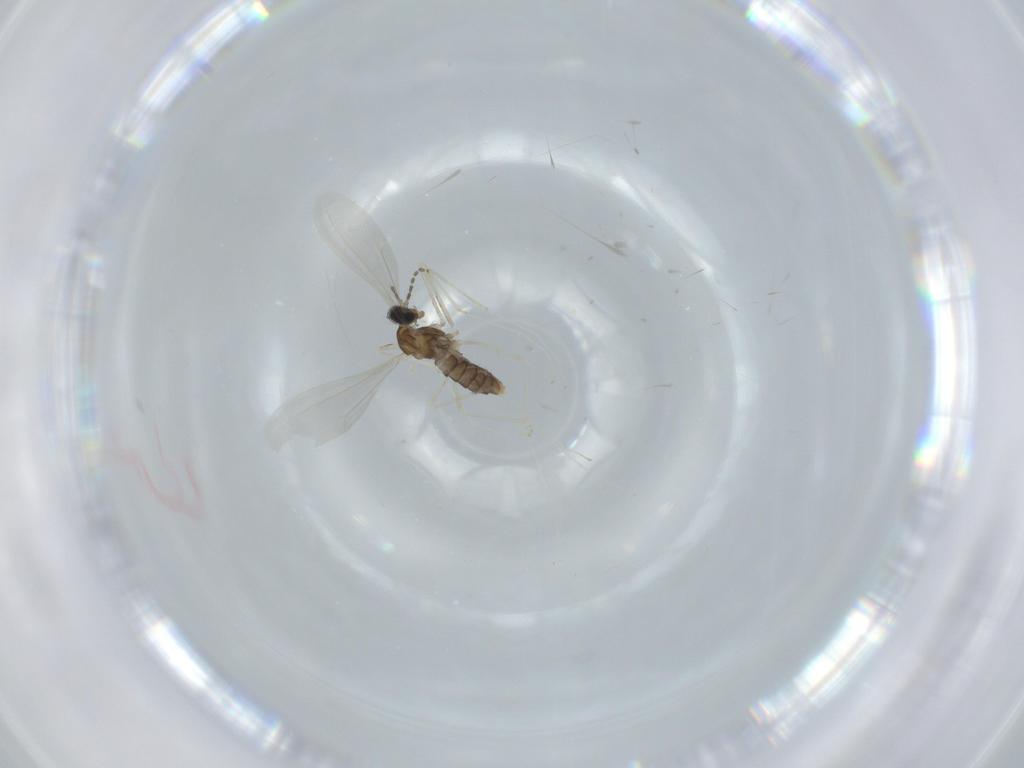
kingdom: Animalia
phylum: Arthropoda
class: Insecta
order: Diptera
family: Cecidomyiidae
